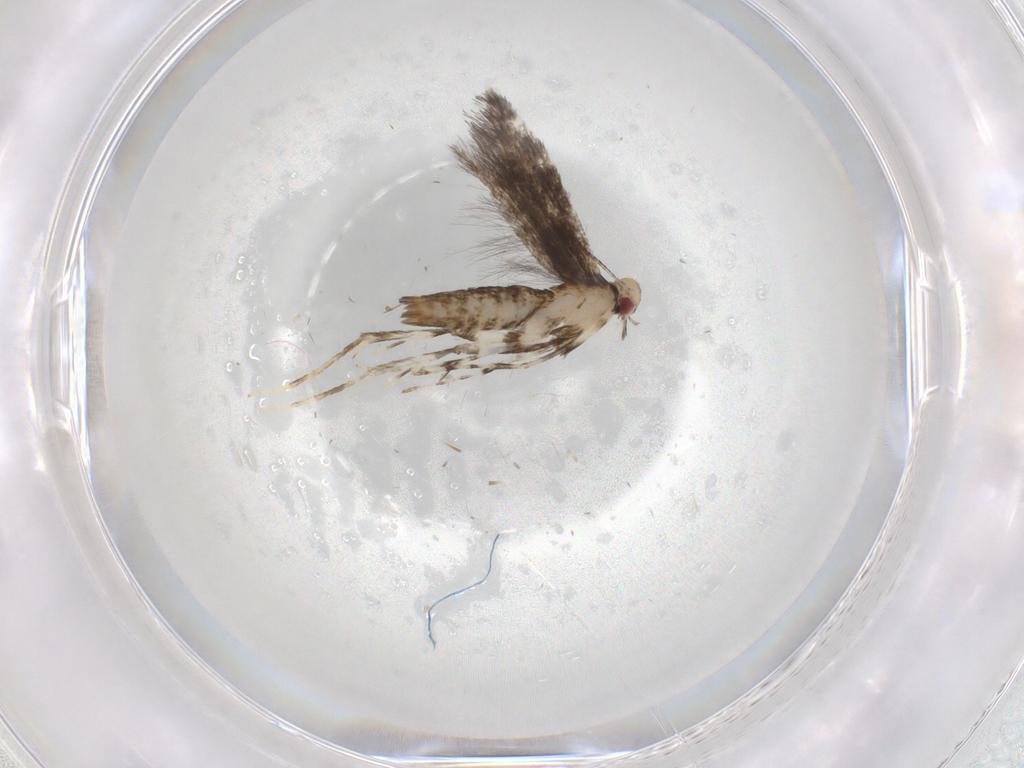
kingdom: Animalia
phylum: Arthropoda
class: Insecta
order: Lepidoptera
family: Gracillariidae
